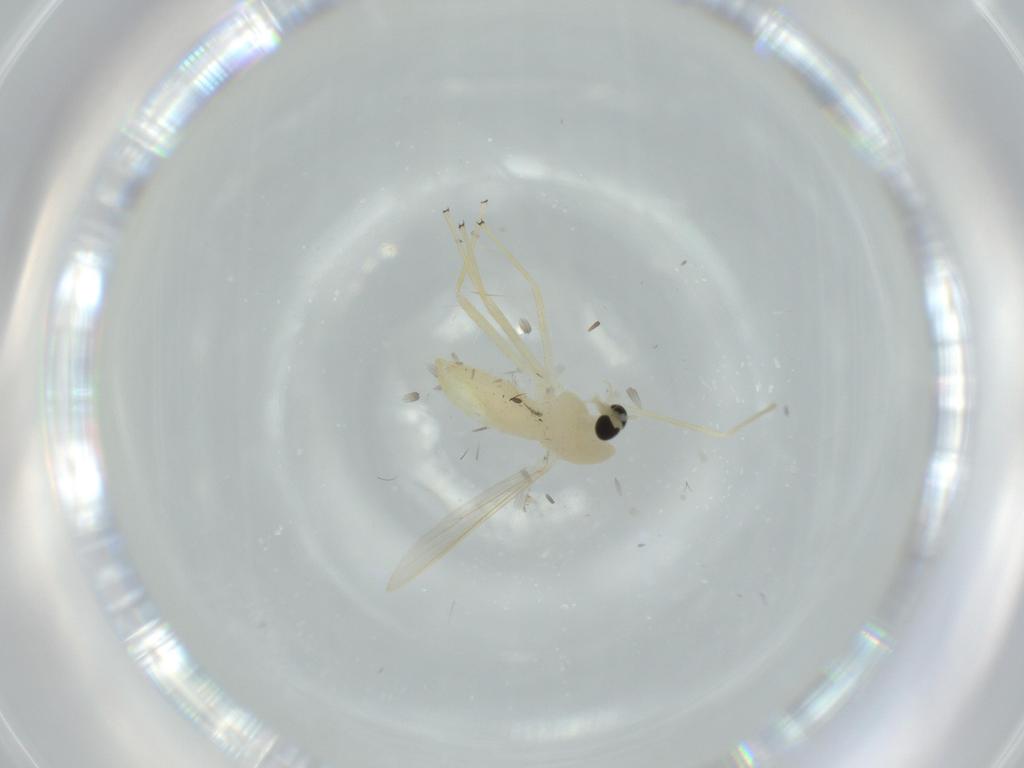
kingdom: Animalia
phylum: Arthropoda
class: Insecta
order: Diptera
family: Chironomidae
